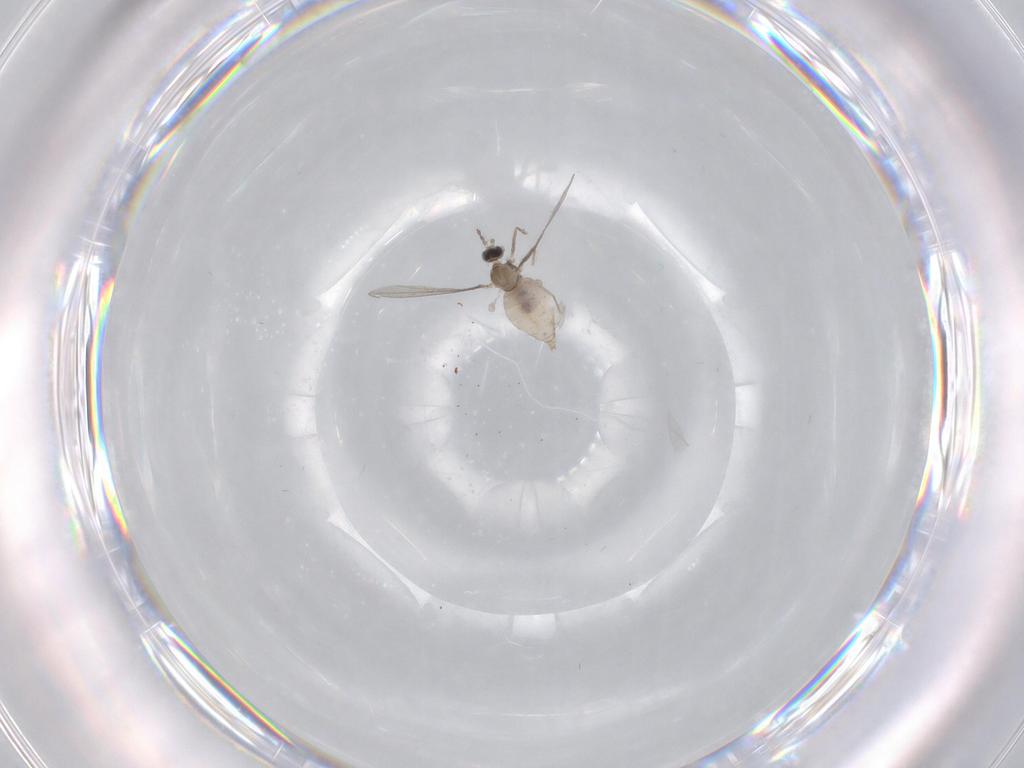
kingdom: Animalia
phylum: Arthropoda
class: Insecta
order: Diptera
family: Cecidomyiidae
